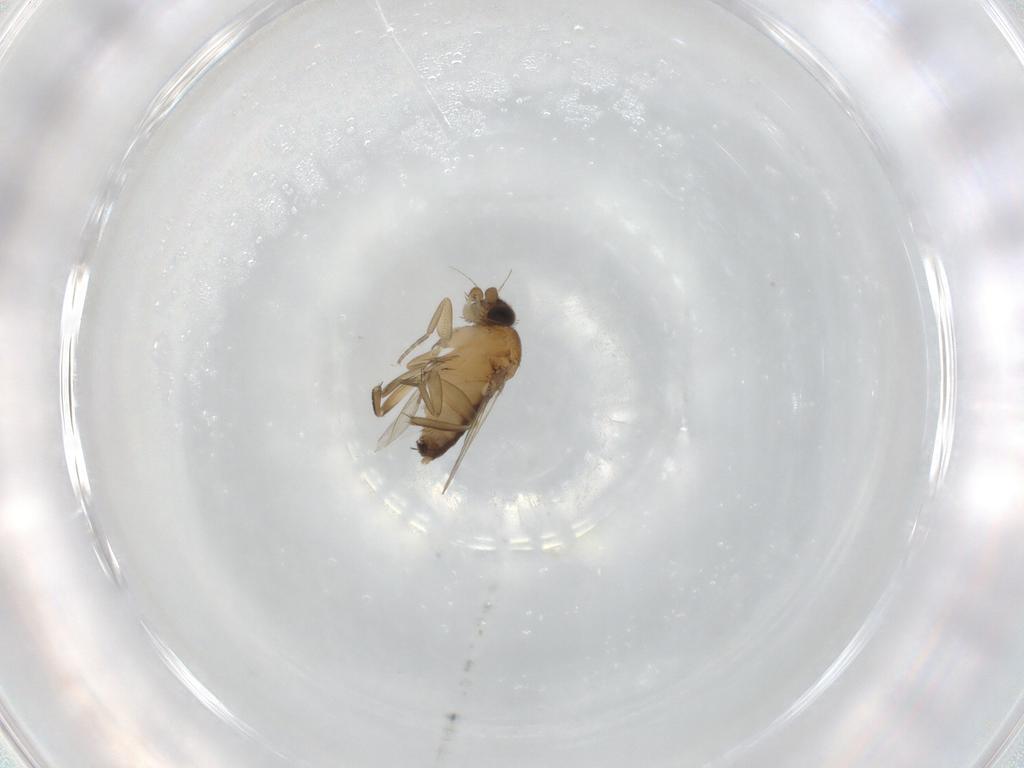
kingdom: Animalia
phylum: Arthropoda
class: Insecta
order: Diptera
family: Phoridae
